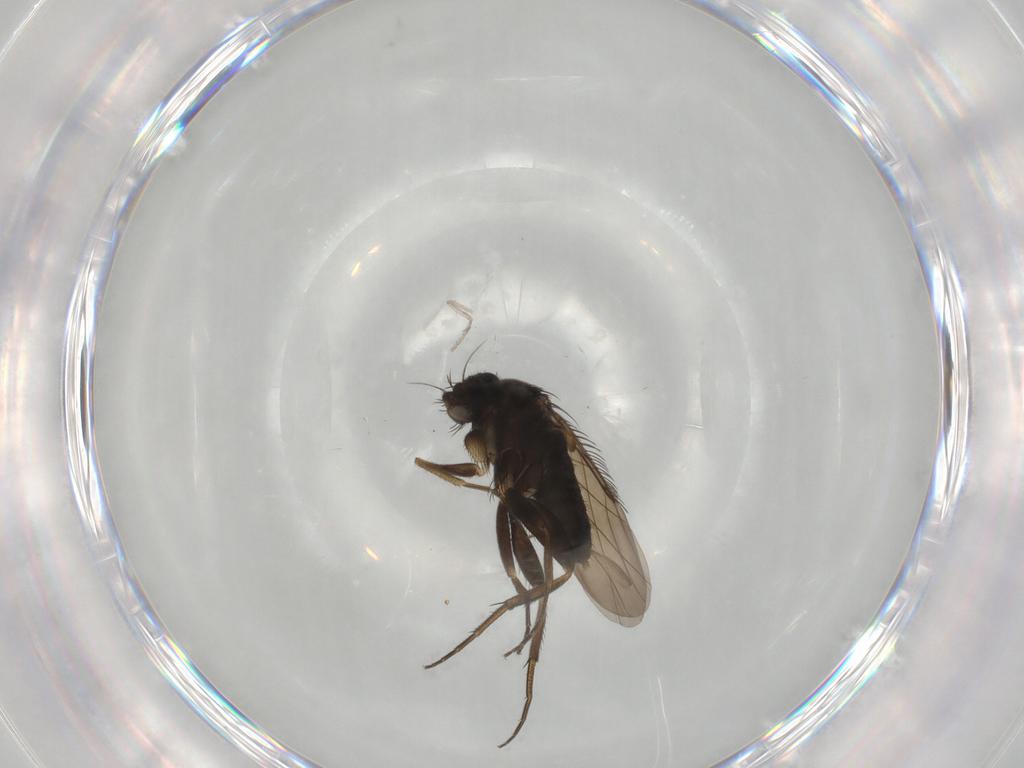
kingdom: Animalia
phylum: Arthropoda
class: Insecta
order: Diptera
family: Phoridae
